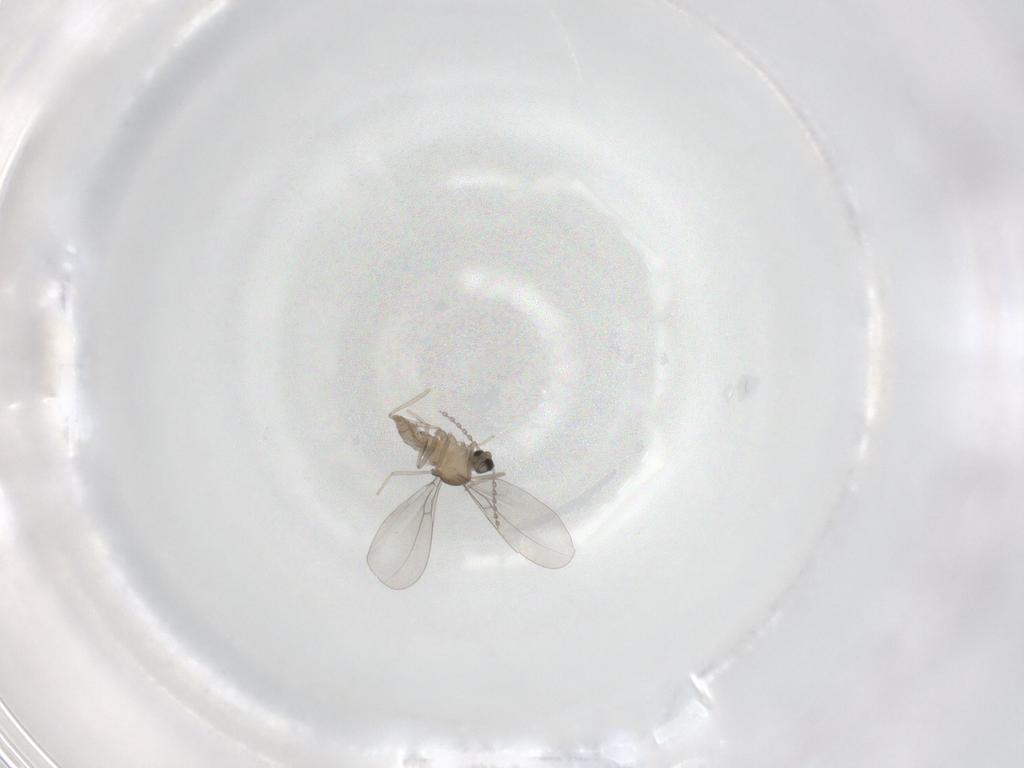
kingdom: Animalia
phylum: Arthropoda
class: Insecta
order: Diptera
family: Cecidomyiidae
